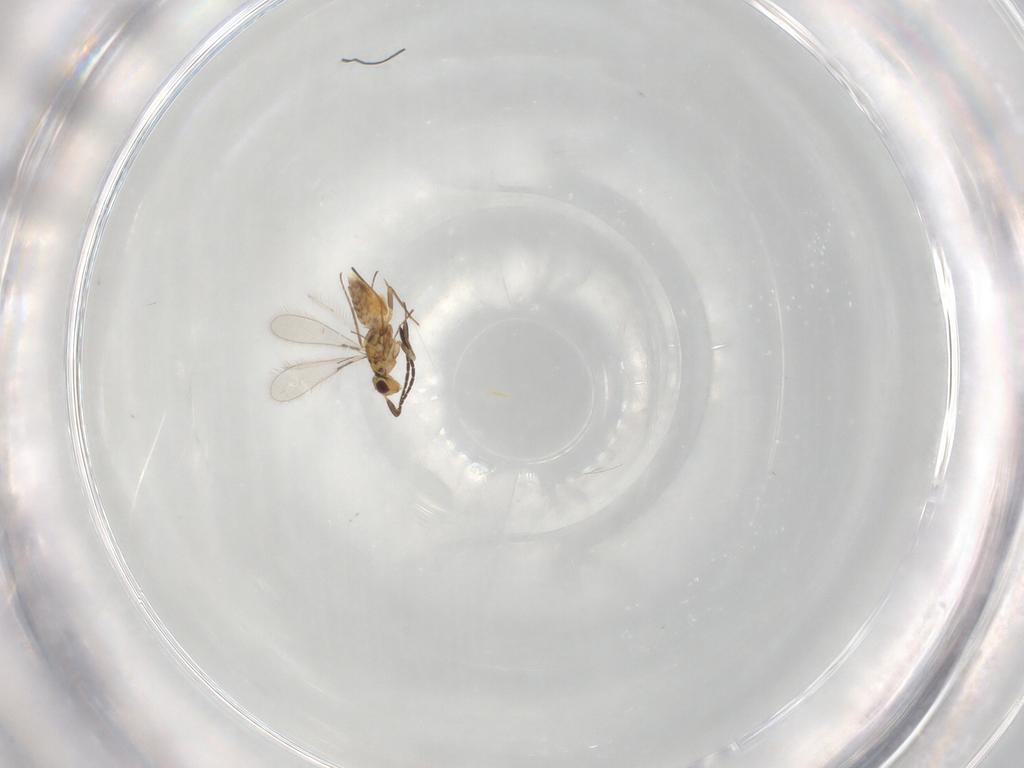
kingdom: Animalia
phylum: Arthropoda
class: Insecta
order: Hymenoptera
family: Mymaridae
